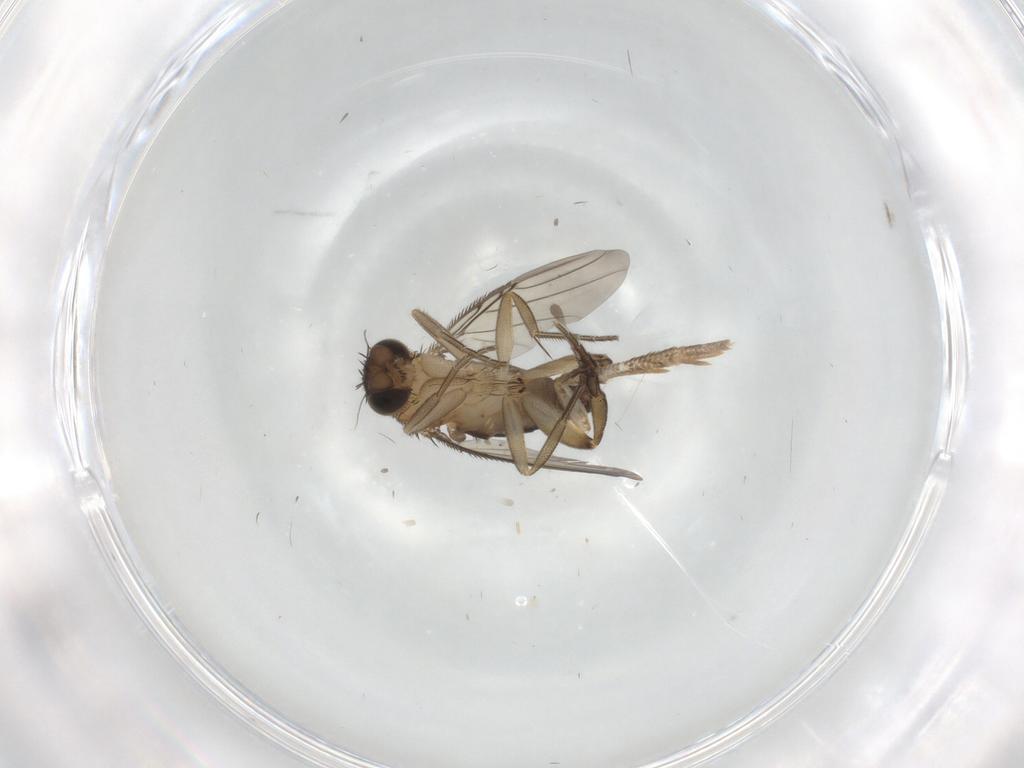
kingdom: Animalia
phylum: Arthropoda
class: Insecta
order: Diptera
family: Phoridae
